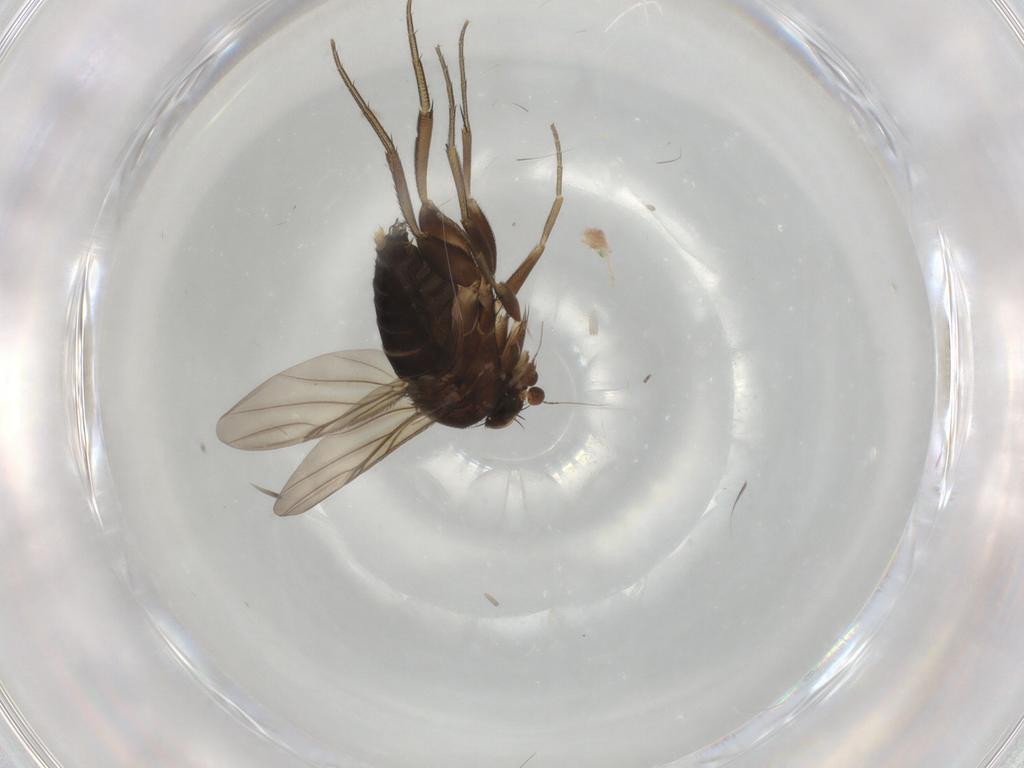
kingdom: Animalia
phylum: Arthropoda
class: Insecta
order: Diptera
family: Phoridae
